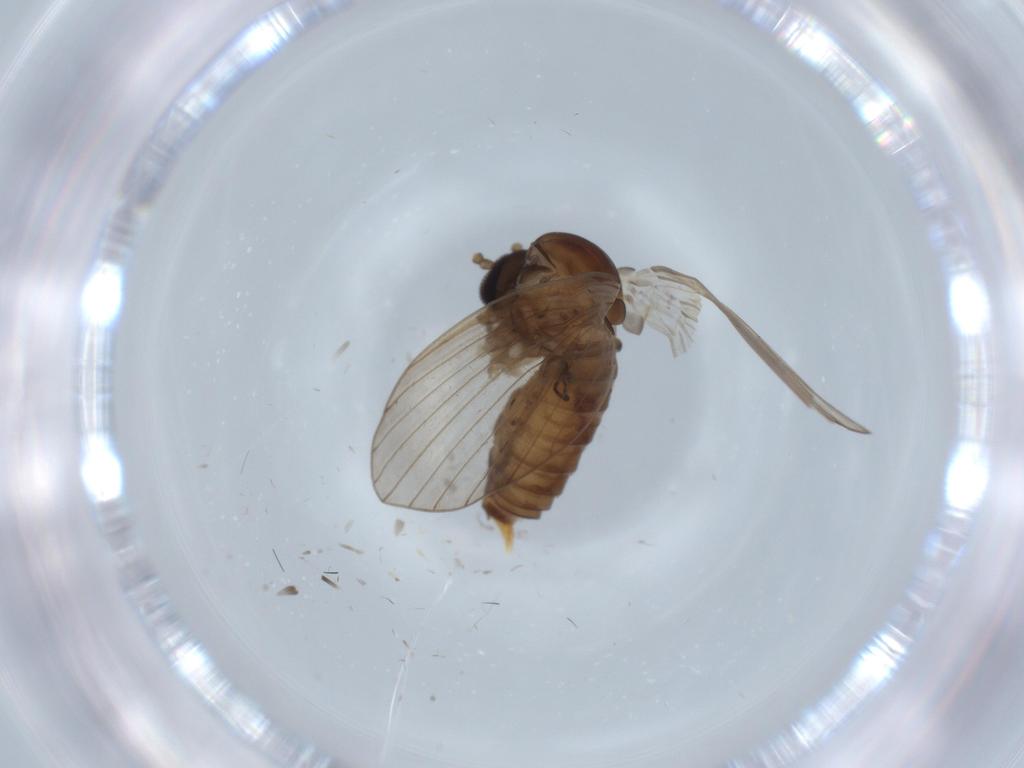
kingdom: Animalia
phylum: Arthropoda
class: Insecta
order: Diptera
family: Psychodidae
